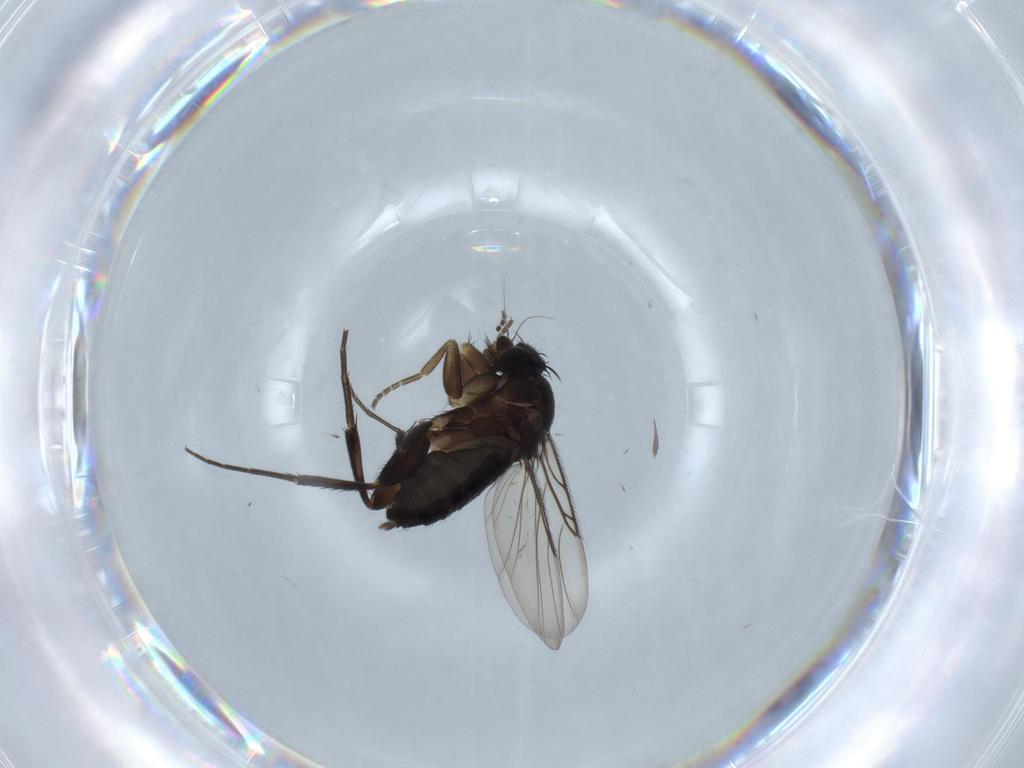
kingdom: Animalia
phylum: Arthropoda
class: Insecta
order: Diptera
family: Phoridae
